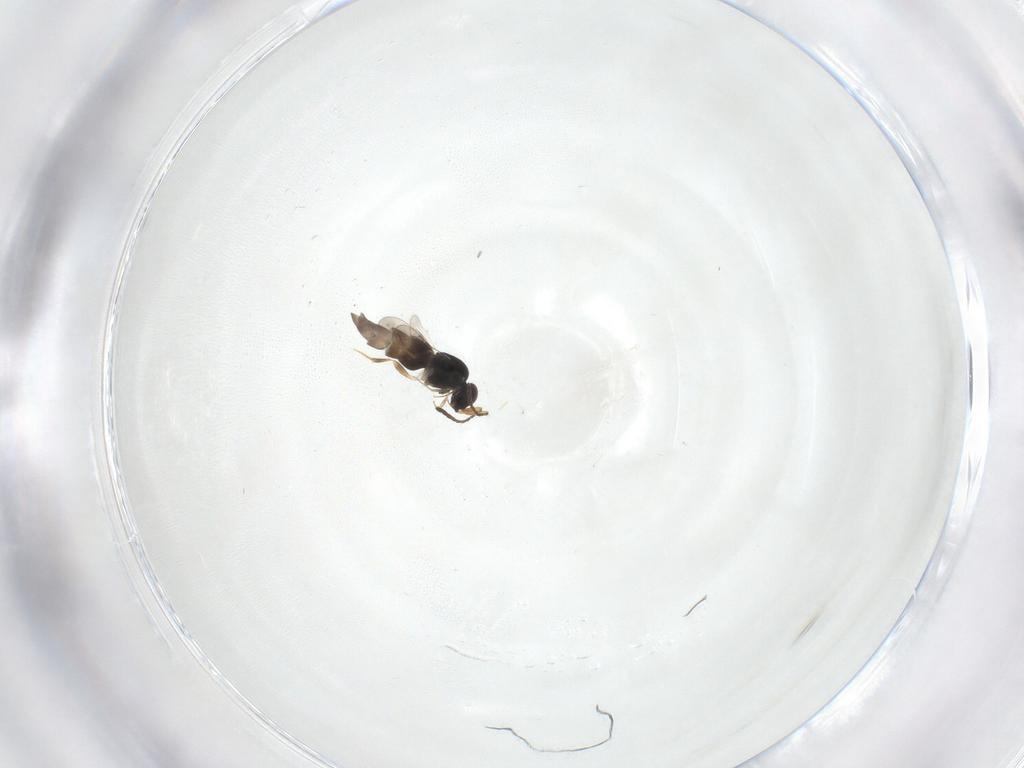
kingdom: Animalia
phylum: Arthropoda
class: Insecta
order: Hymenoptera
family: Ceraphronidae
